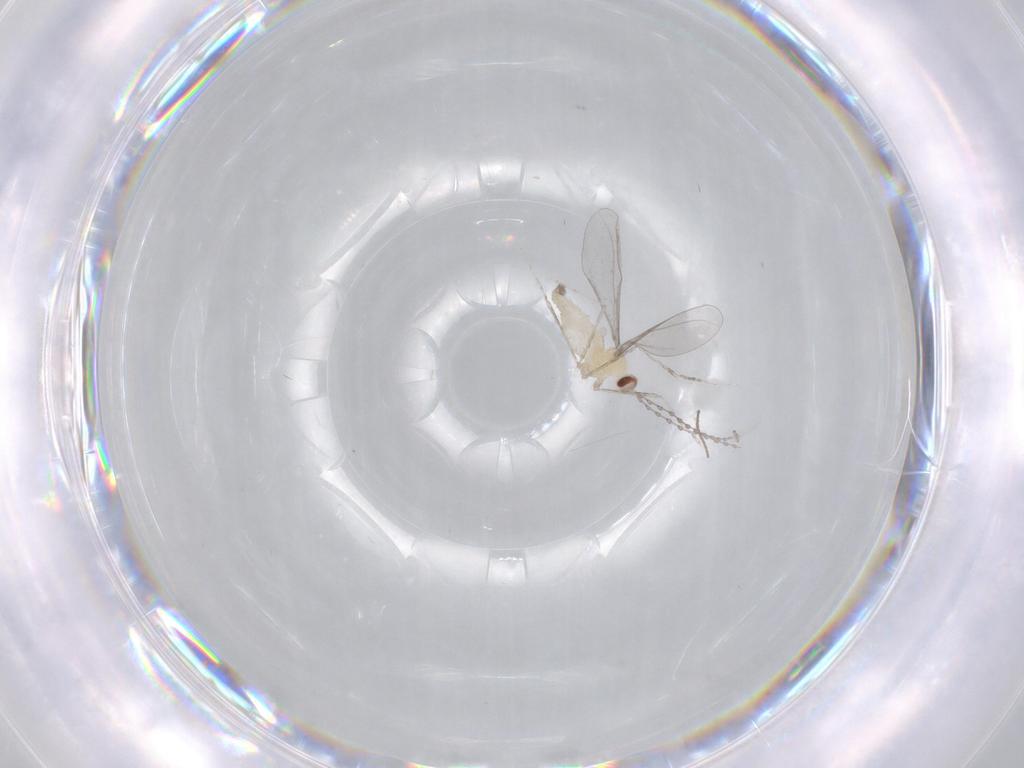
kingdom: Animalia
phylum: Arthropoda
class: Insecta
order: Diptera
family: Cecidomyiidae
